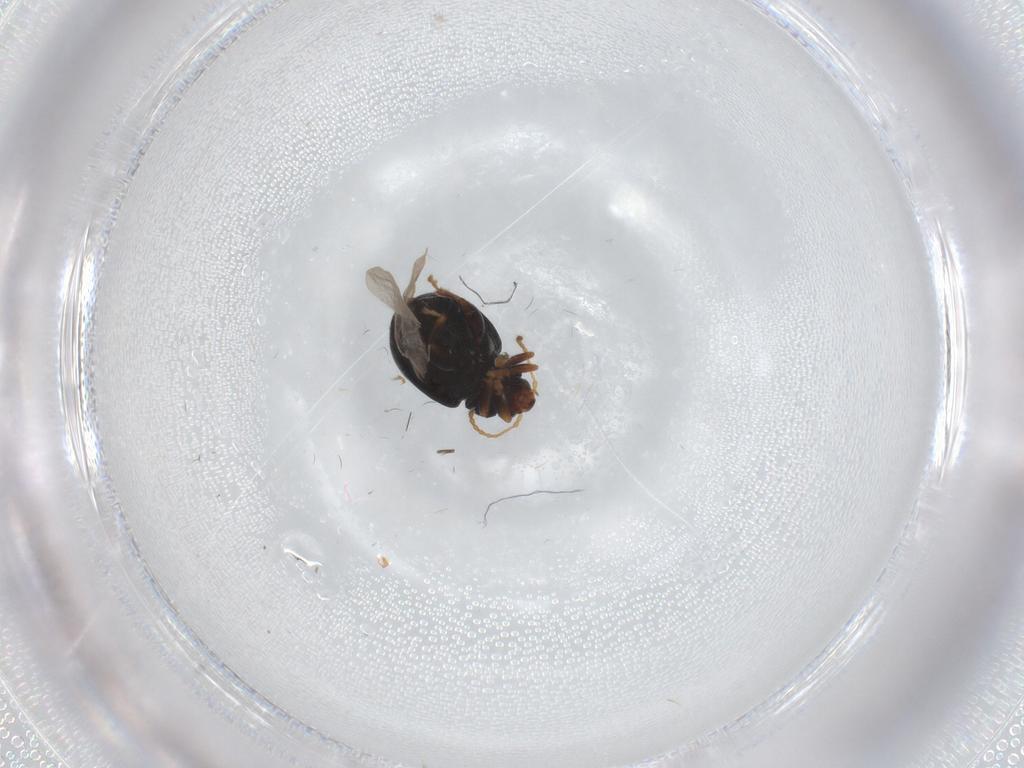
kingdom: Animalia
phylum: Arthropoda
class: Insecta
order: Coleoptera
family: Chrysomelidae
